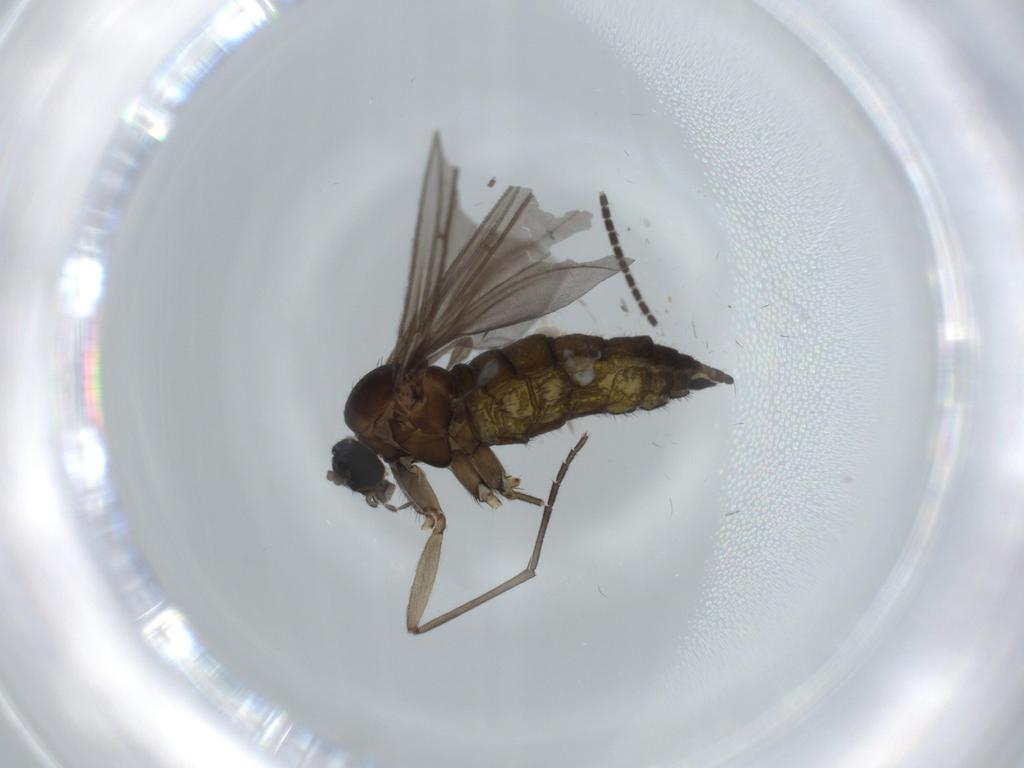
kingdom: Animalia
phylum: Arthropoda
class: Insecta
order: Diptera
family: Sciaridae
